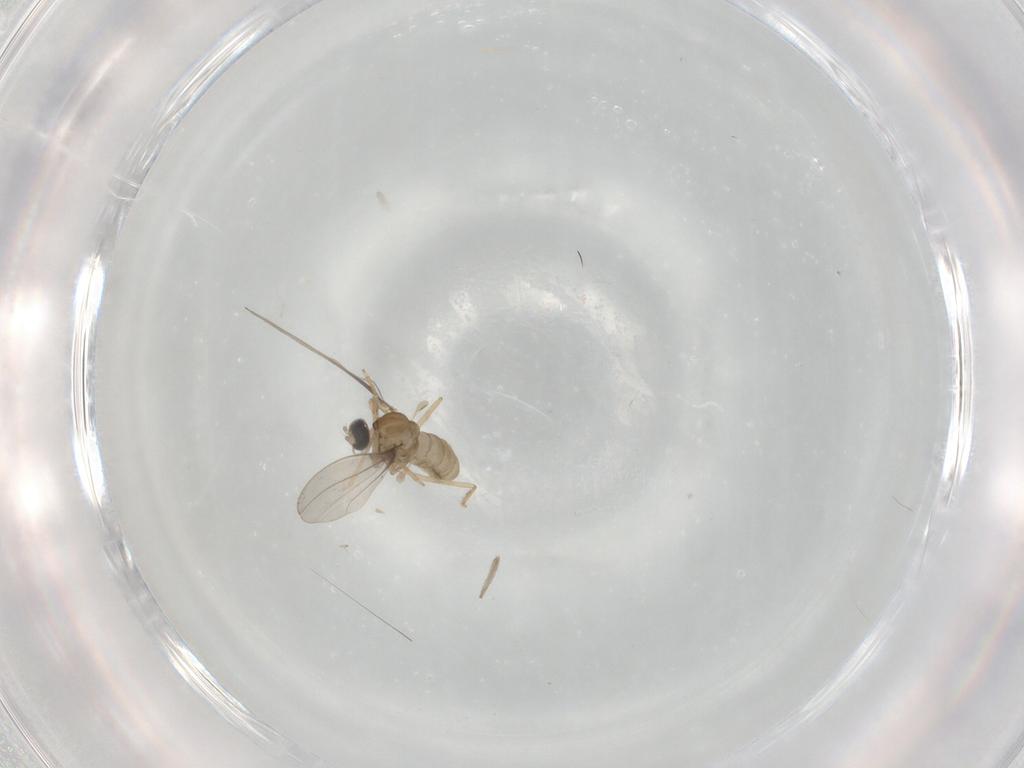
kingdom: Animalia
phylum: Arthropoda
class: Insecta
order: Diptera
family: Cecidomyiidae
